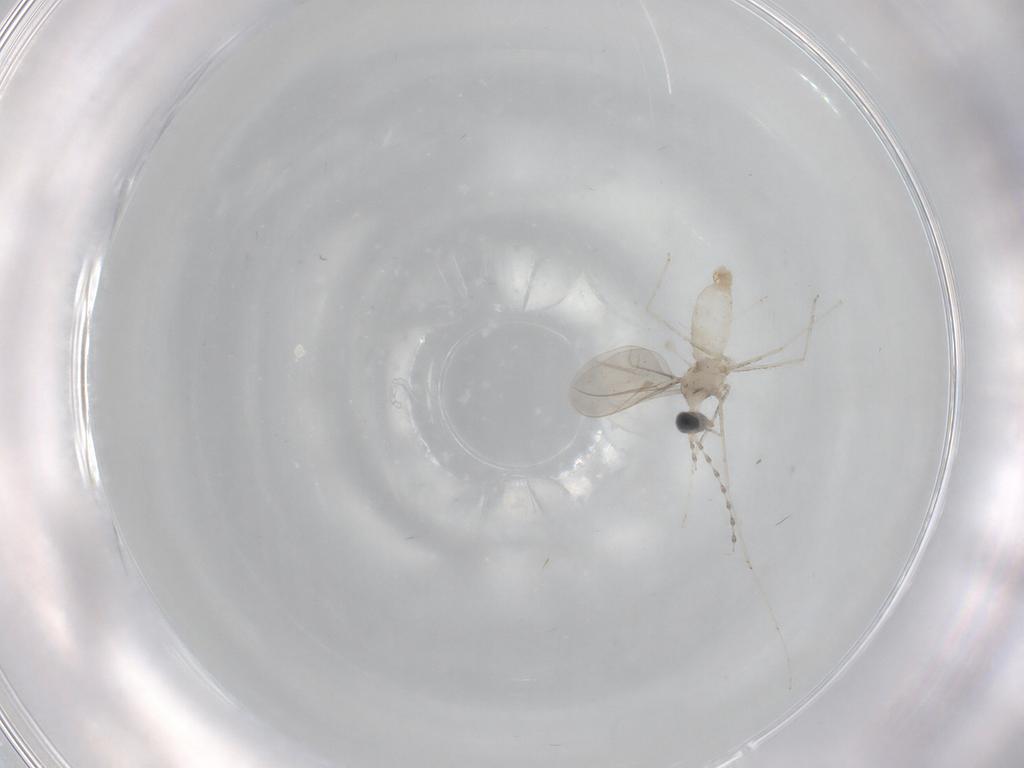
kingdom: Animalia
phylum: Arthropoda
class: Insecta
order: Diptera
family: Cecidomyiidae
